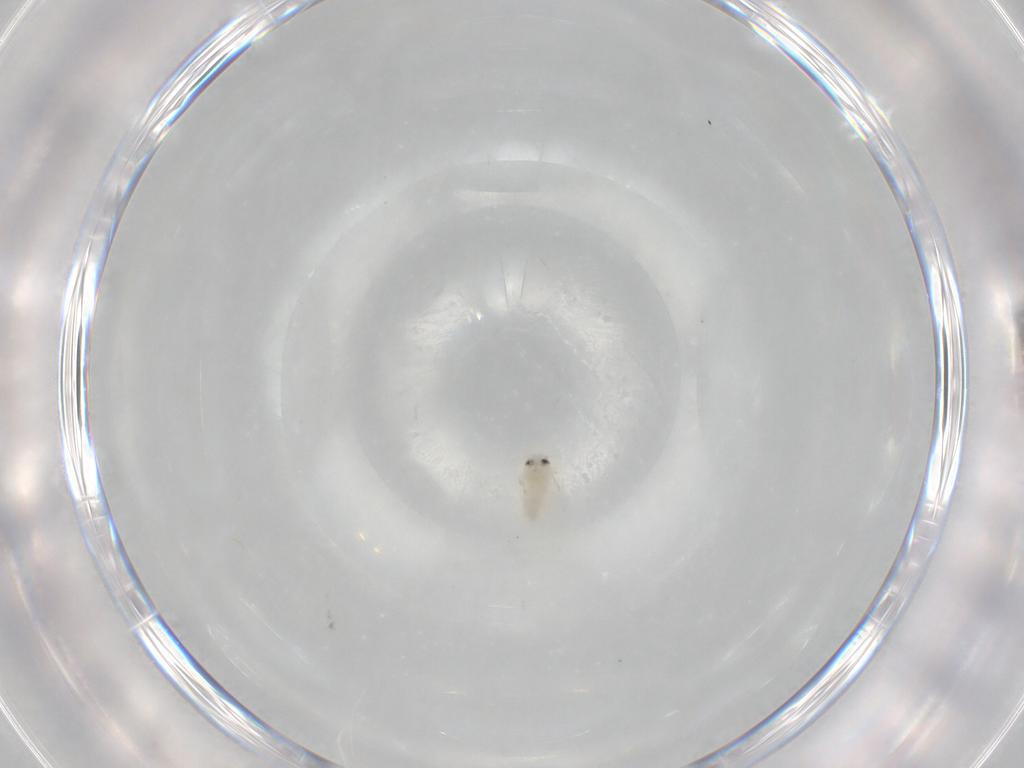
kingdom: Animalia
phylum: Arthropoda
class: Insecta
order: Hemiptera
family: Aleyrodidae
